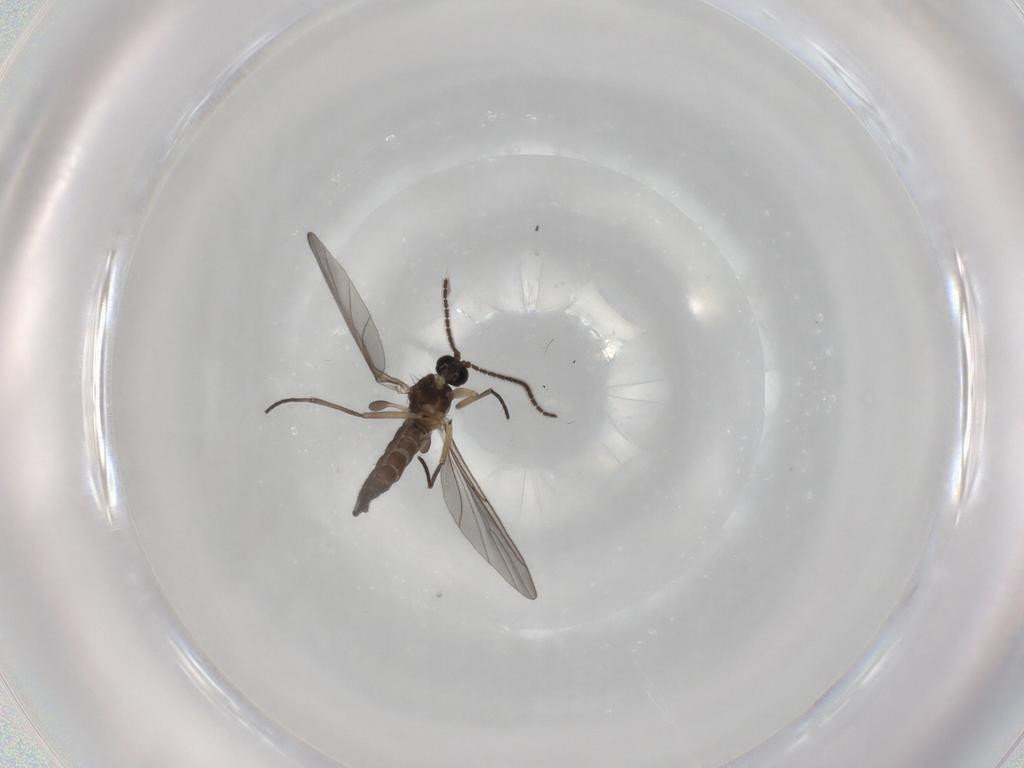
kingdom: Animalia
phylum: Arthropoda
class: Insecta
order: Diptera
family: Sciaridae
